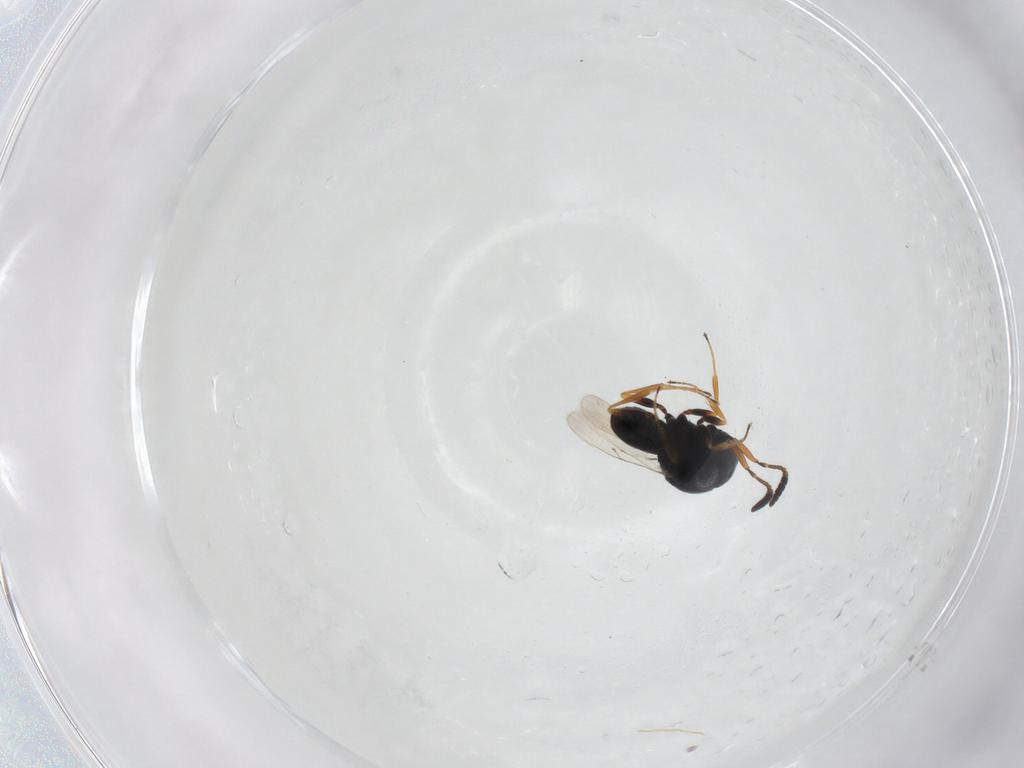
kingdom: Animalia
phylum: Arthropoda
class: Insecta
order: Hymenoptera
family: Scelionidae
